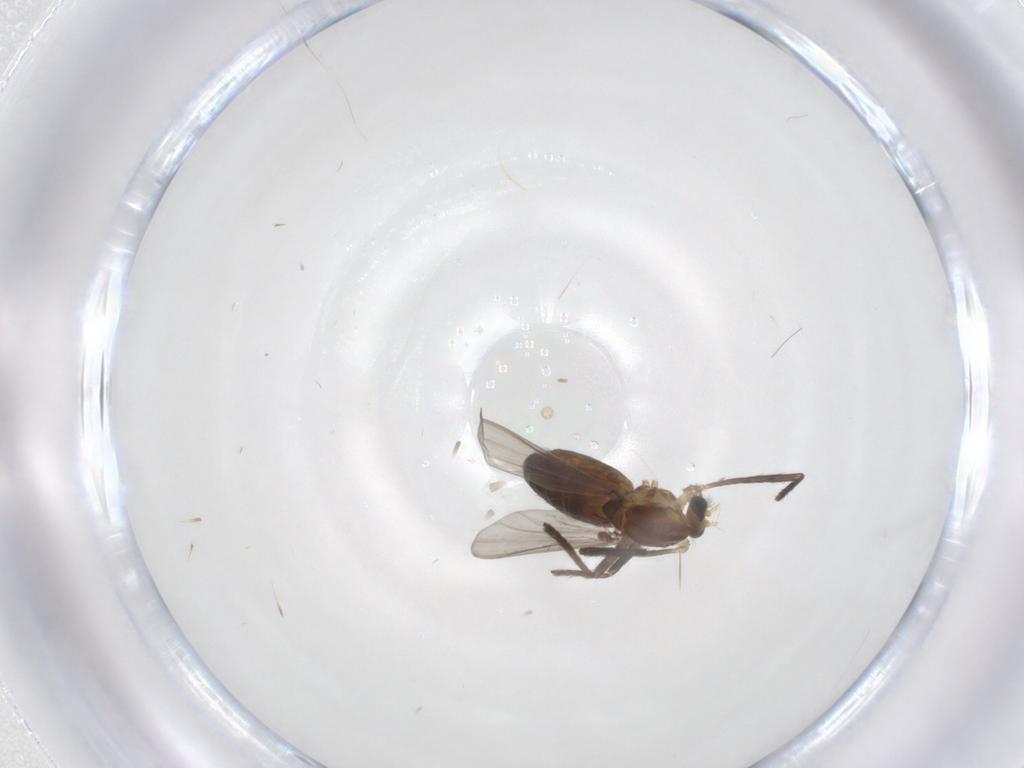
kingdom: Animalia
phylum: Arthropoda
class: Insecta
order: Diptera
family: Chironomidae
